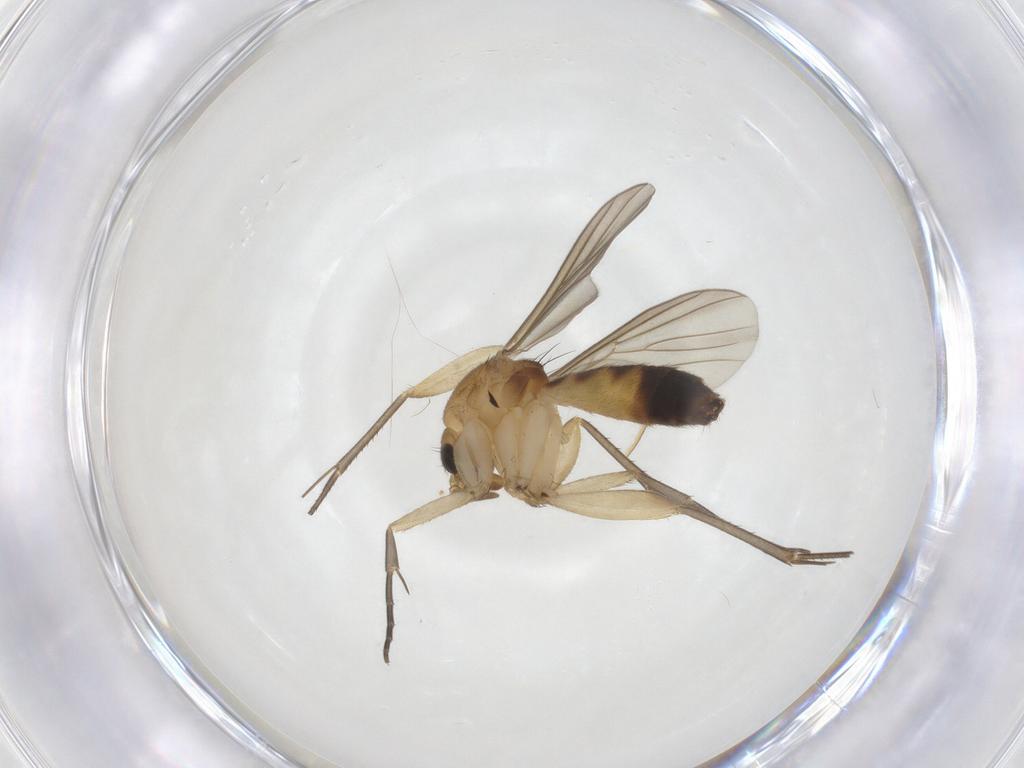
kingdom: Animalia
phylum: Arthropoda
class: Insecta
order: Diptera
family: Mycetophilidae
